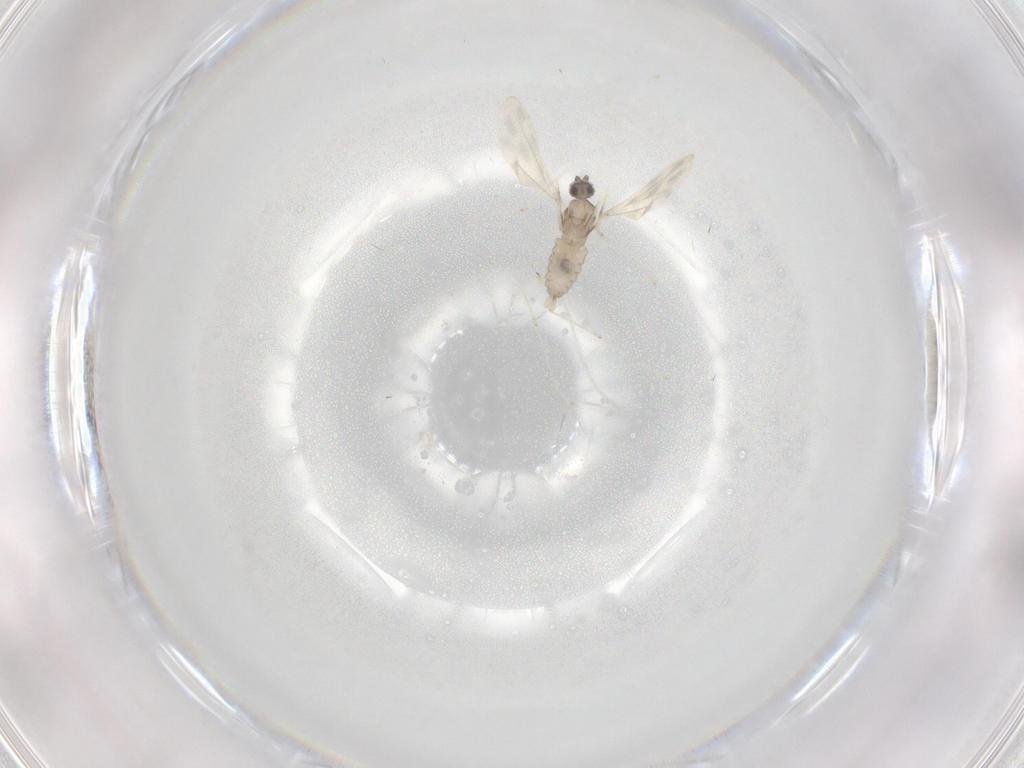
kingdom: Animalia
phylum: Arthropoda
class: Insecta
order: Diptera
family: Cecidomyiidae
